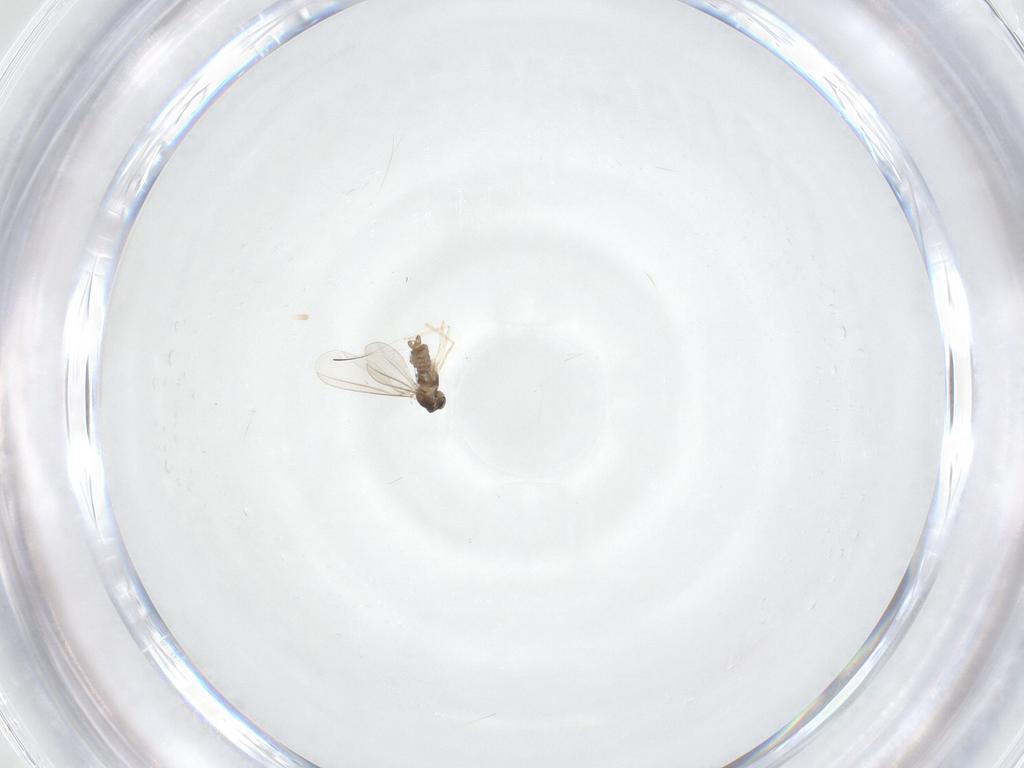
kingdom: Animalia
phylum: Arthropoda
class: Insecta
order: Diptera
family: Cecidomyiidae
